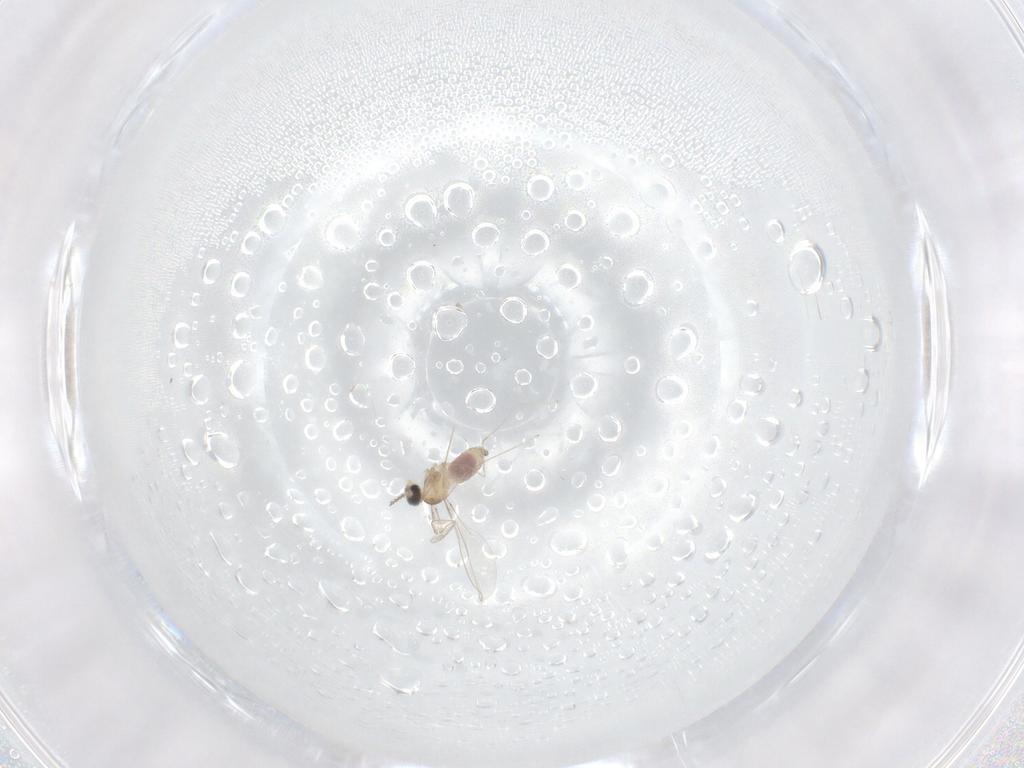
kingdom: Animalia
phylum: Arthropoda
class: Insecta
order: Diptera
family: Cecidomyiidae
